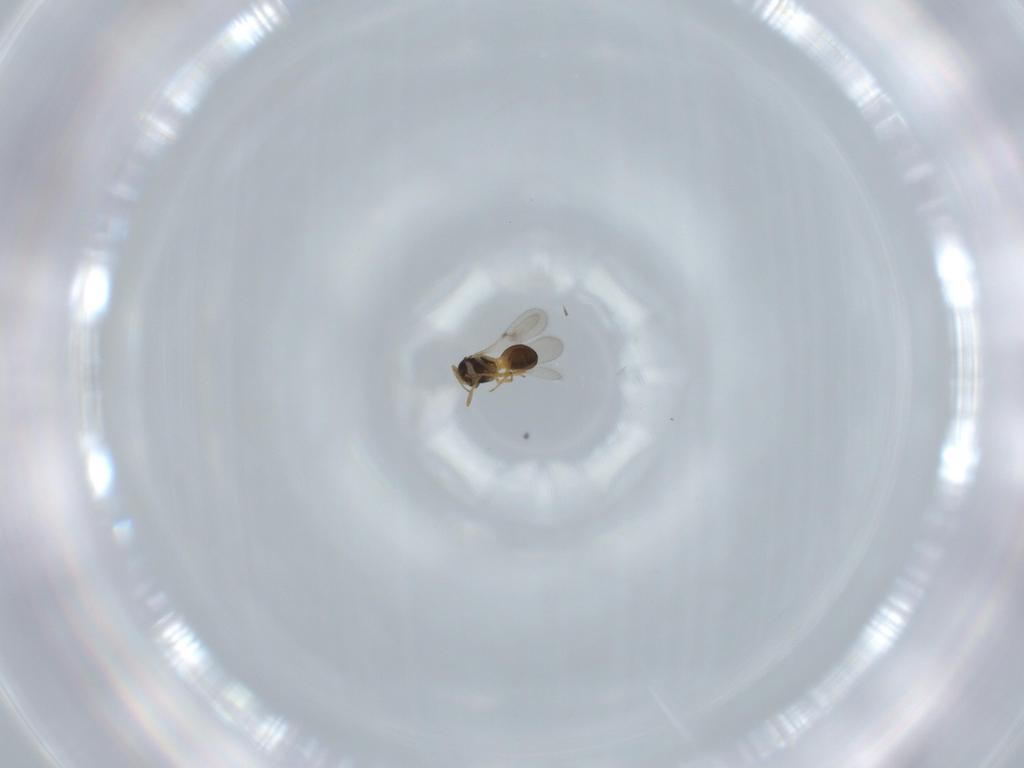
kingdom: Animalia
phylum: Arthropoda
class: Insecta
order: Hymenoptera
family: Scelionidae
